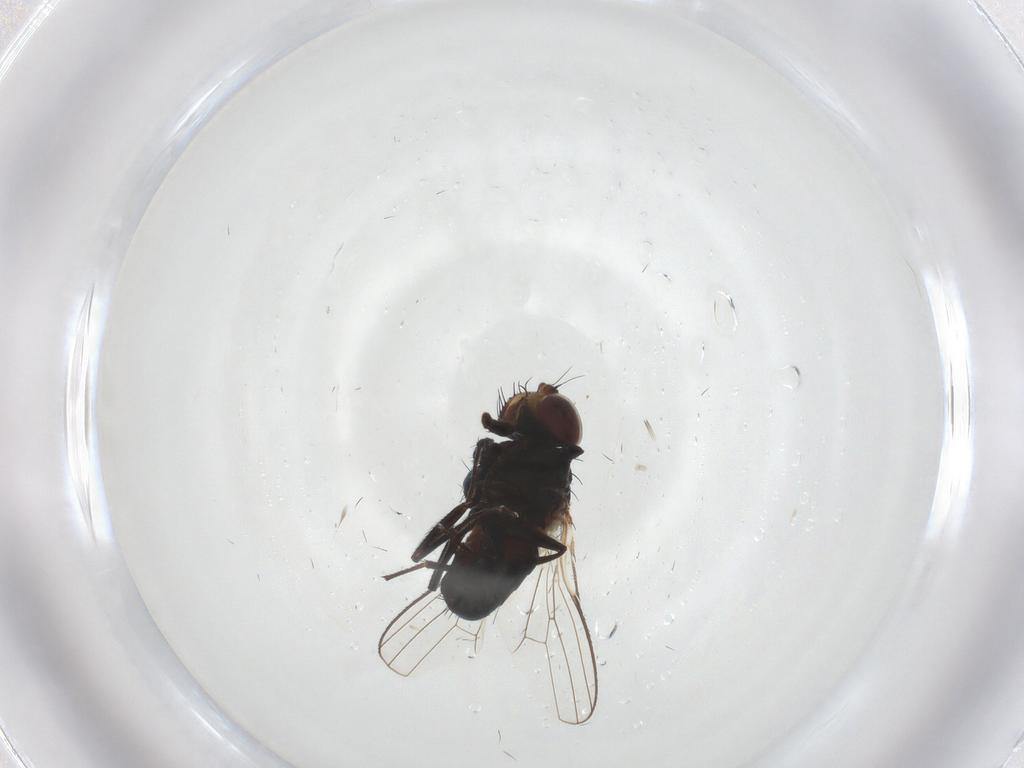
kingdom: Animalia
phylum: Arthropoda
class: Insecta
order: Diptera
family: Carnidae
